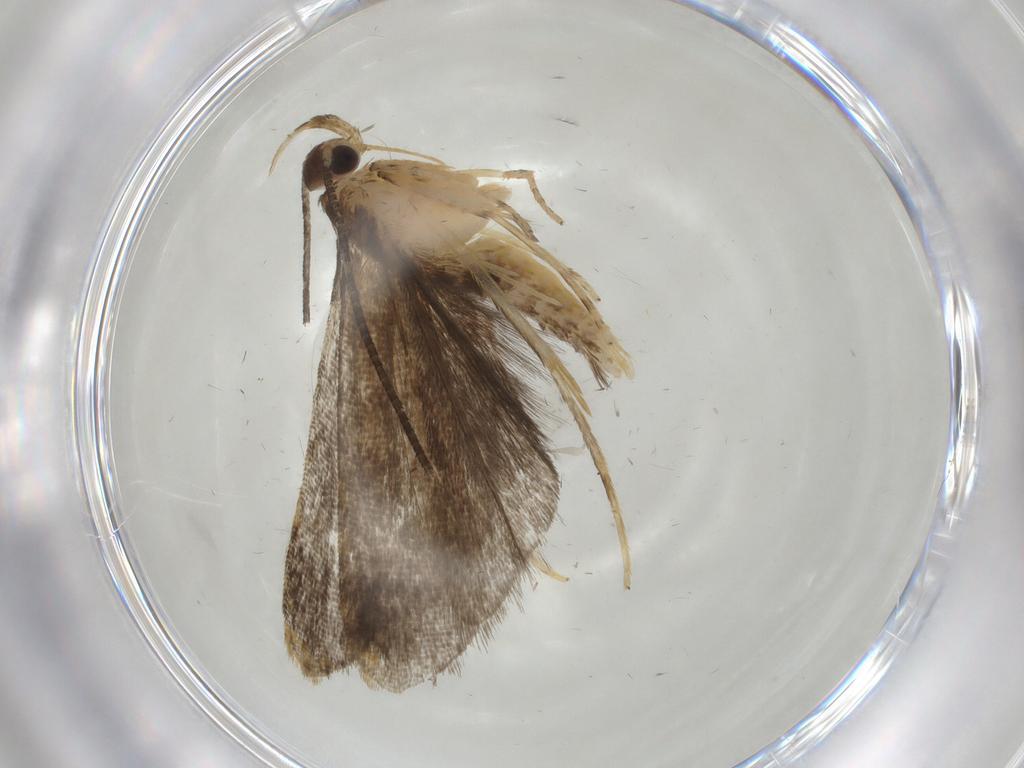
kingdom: Animalia
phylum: Arthropoda
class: Insecta
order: Lepidoptera
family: Cosmopterigidae
